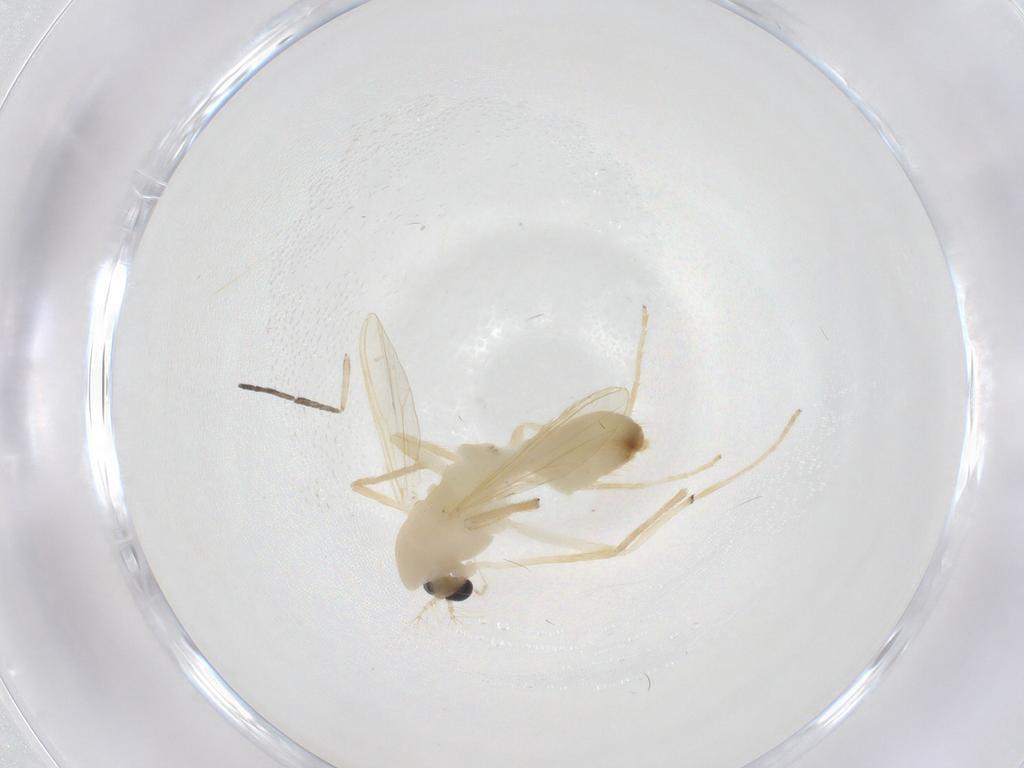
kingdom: Animalia
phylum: Arthropoda
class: Insecta
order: Diptera
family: Chironomidae
